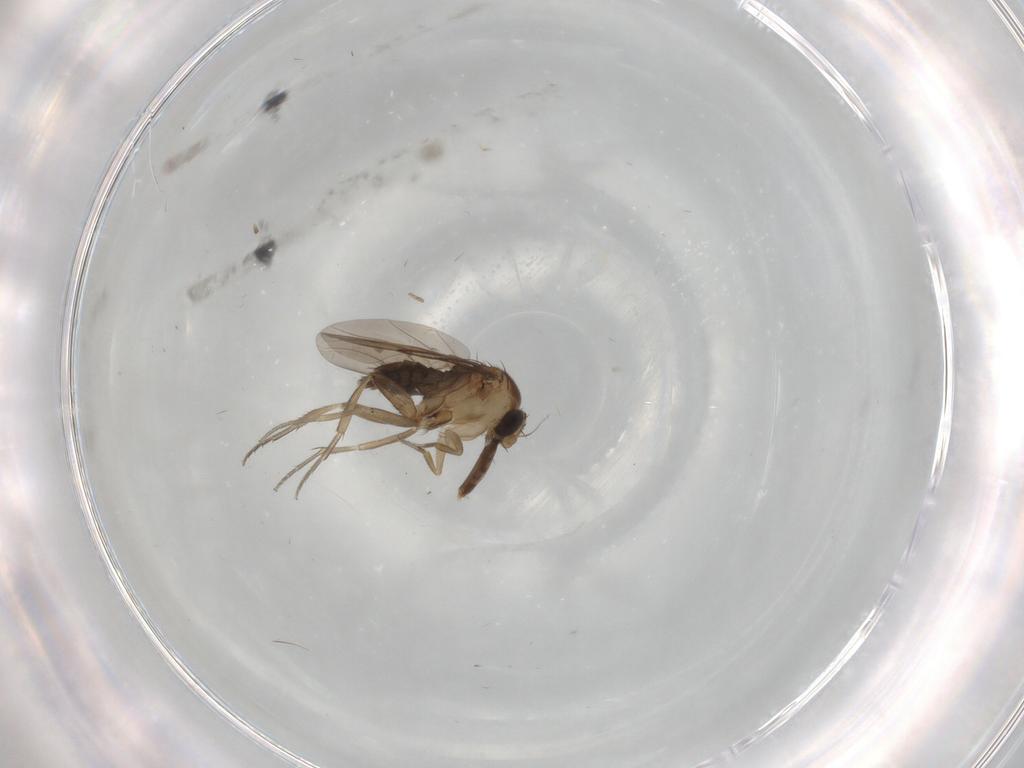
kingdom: Animalia
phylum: Arthropoda
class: Insecta
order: Diptera
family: Phoridae
